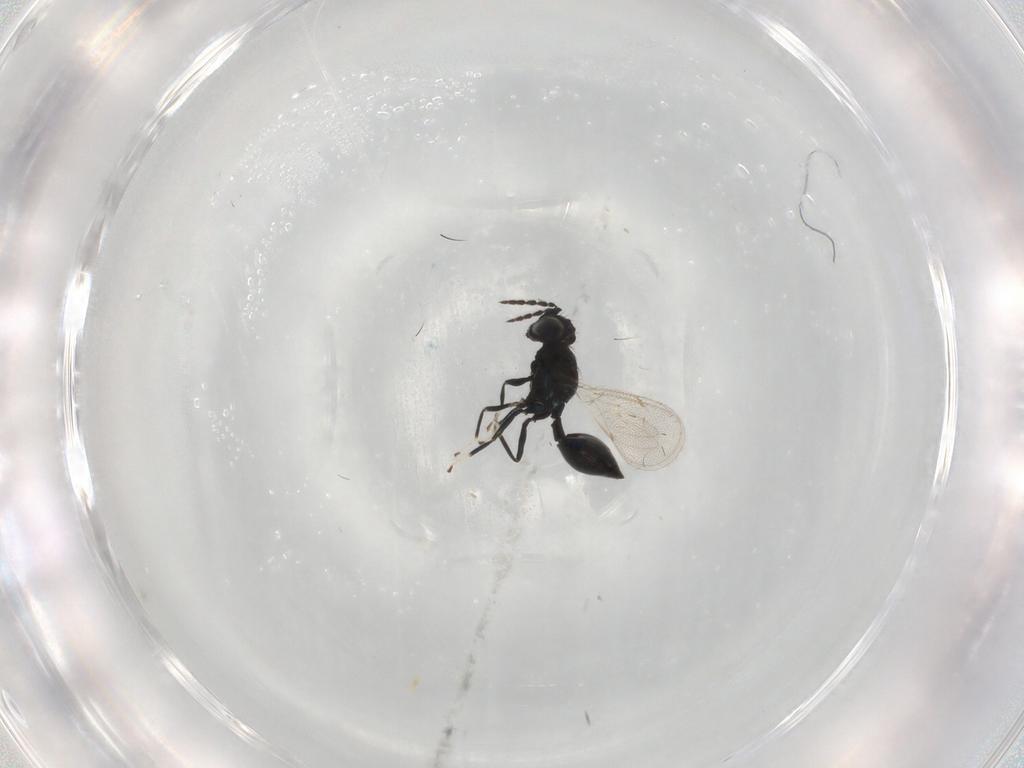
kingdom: Animalia
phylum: Arthropoda
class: Insecta
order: Hymenoptera
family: Eulophidae
